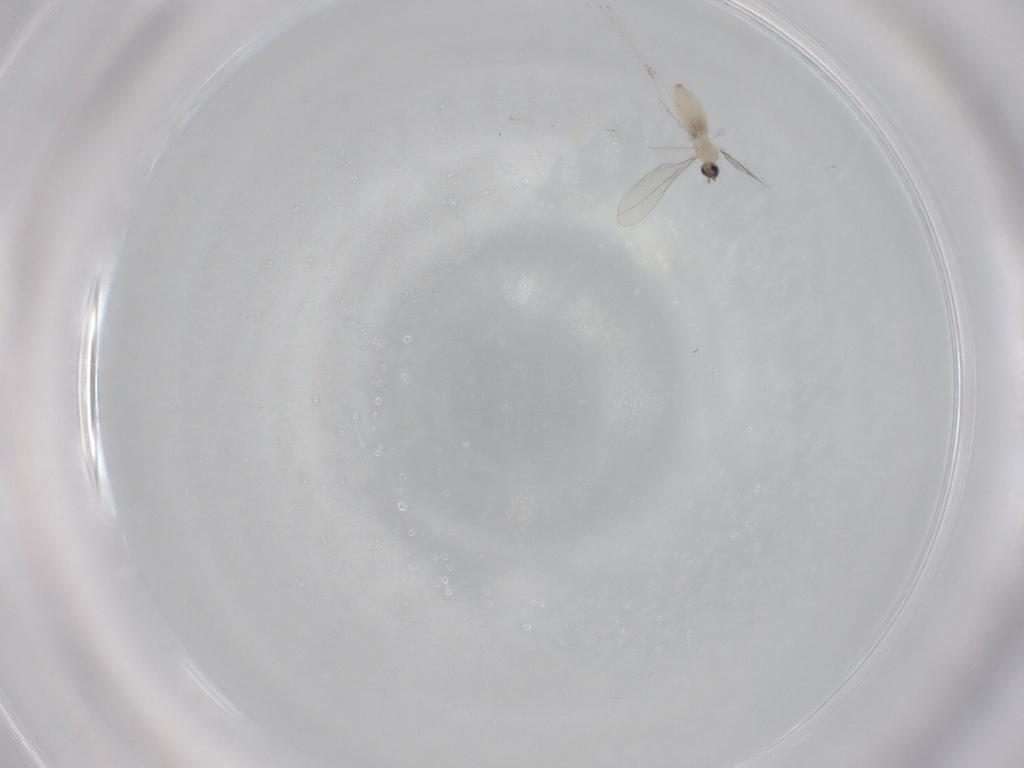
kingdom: Animalia
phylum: Arthropoda
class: Insecta
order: Diptera
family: Cecidomyiidae
